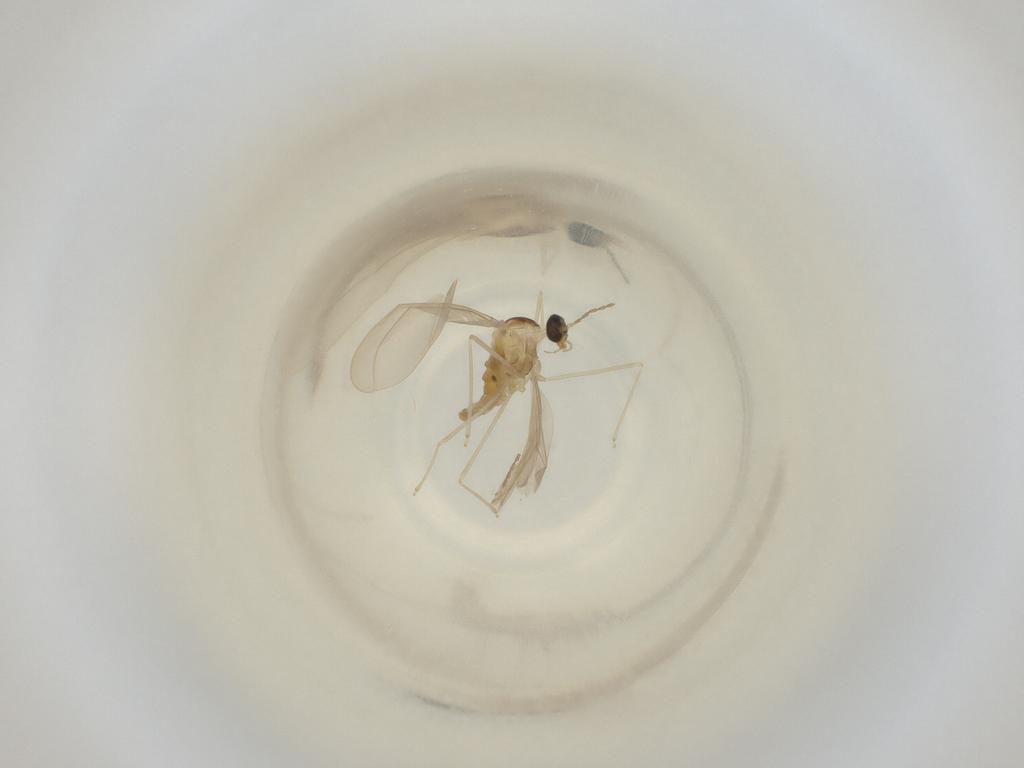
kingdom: Animalia
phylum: Arthropoda
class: Insecta
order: Diptera
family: Cecidomyiidae
